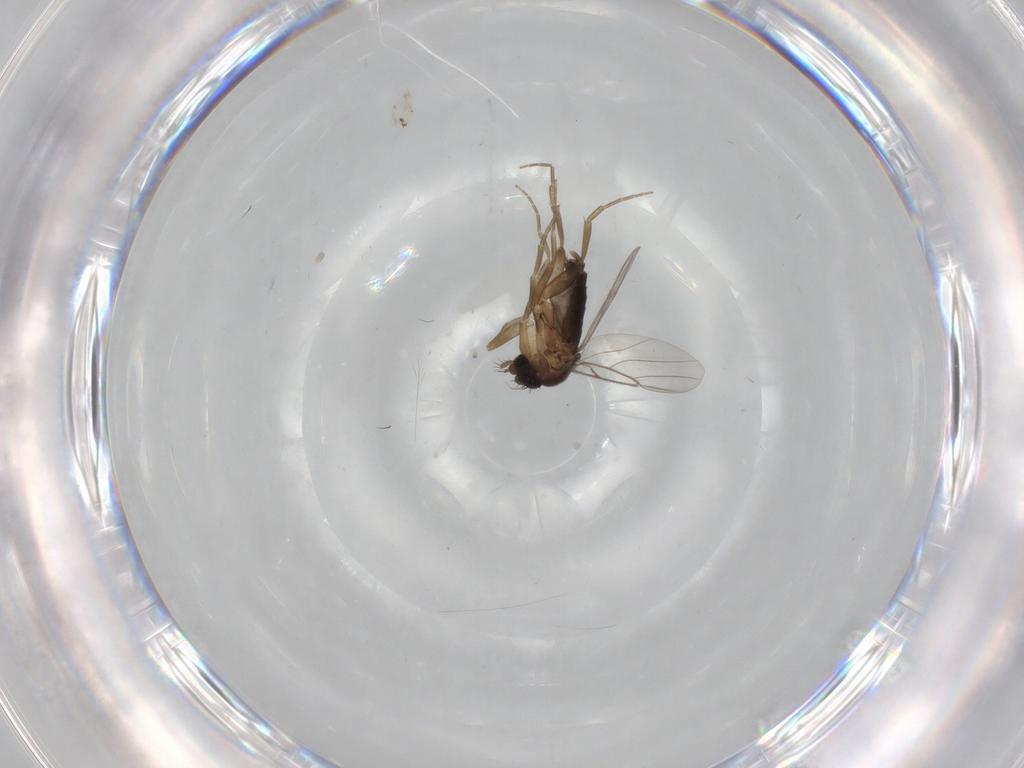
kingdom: Animalia
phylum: Arthropoda
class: Insecta
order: Diptera
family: Phoridae
